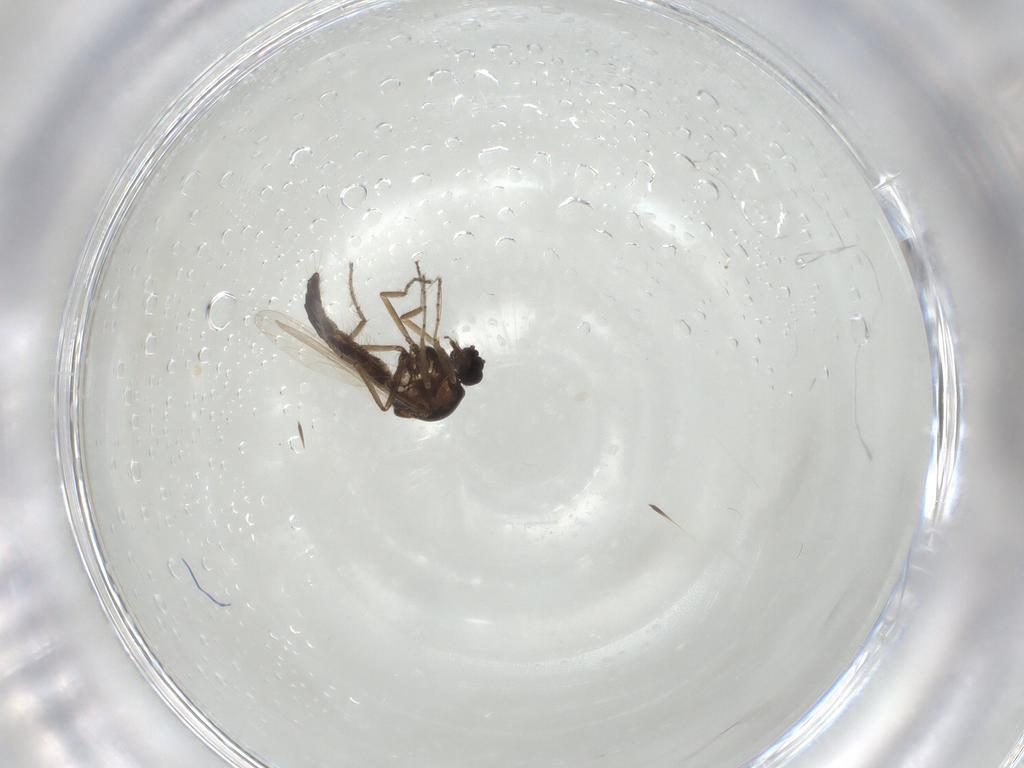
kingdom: Animalia
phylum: Arthropoda
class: Insecta
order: Diptera
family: Ceratopogonidae
